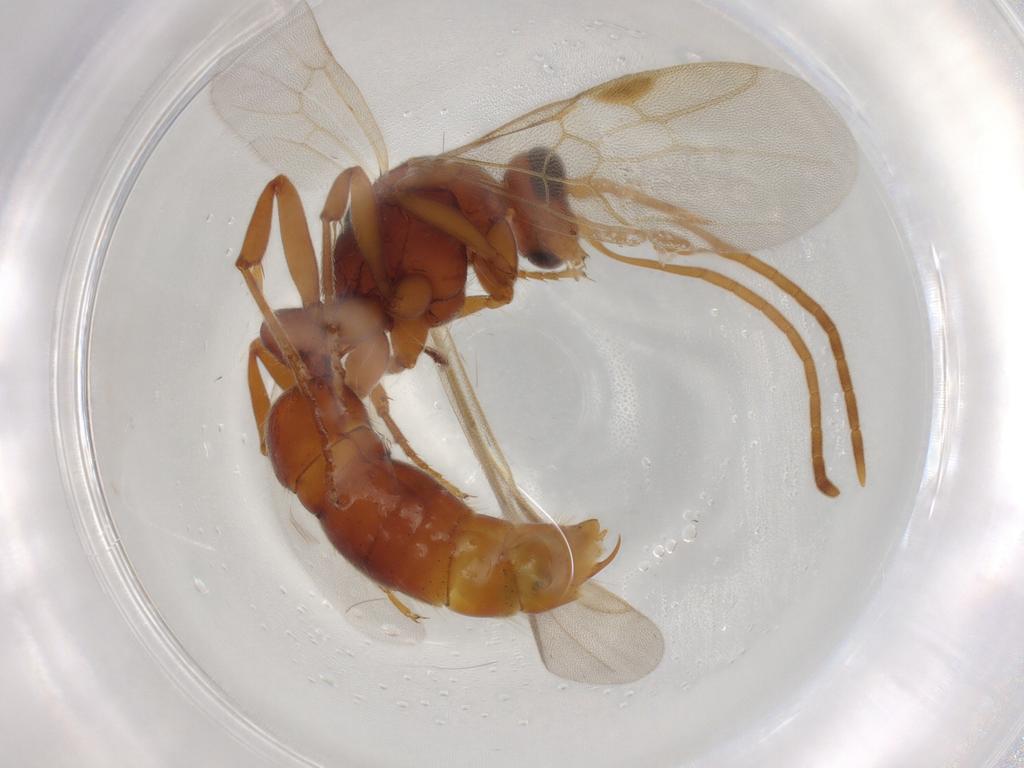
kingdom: Animalia
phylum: Arthropoda
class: Insecta
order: Hymenoptera
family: Formicidae
